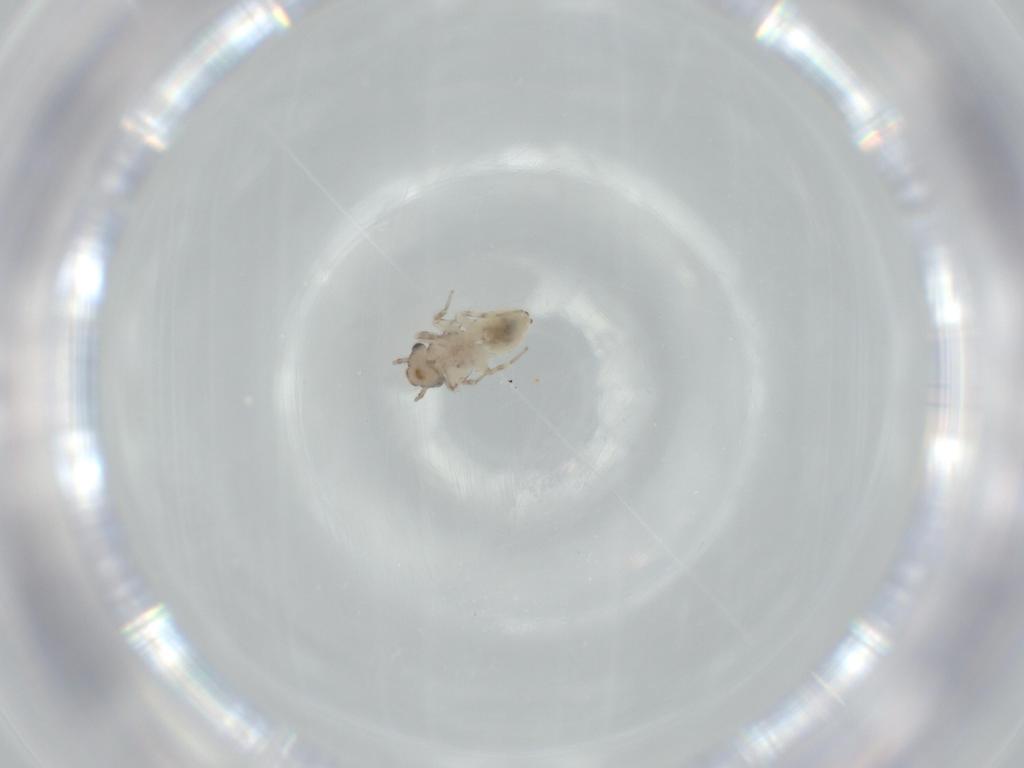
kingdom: Animalia
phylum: Arthropoda
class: Insecta
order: Psocodea
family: Lepidopsocidae
